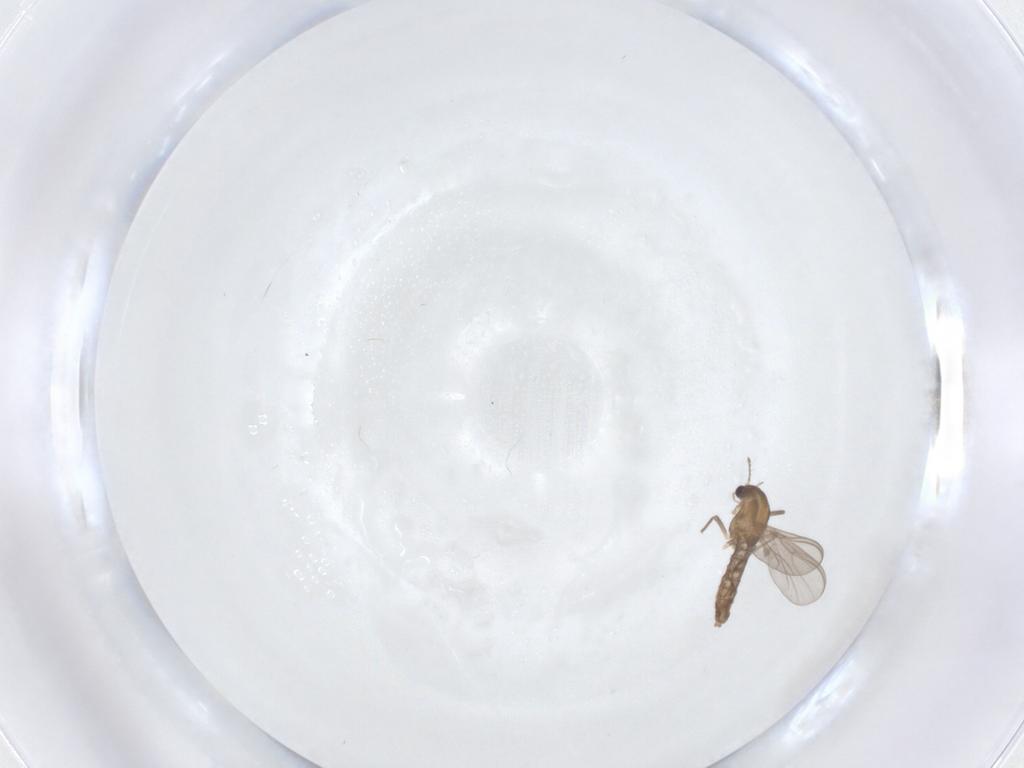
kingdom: Animalia
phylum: Arthropoda
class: Insecta
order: Diptera
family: Chironomidae
